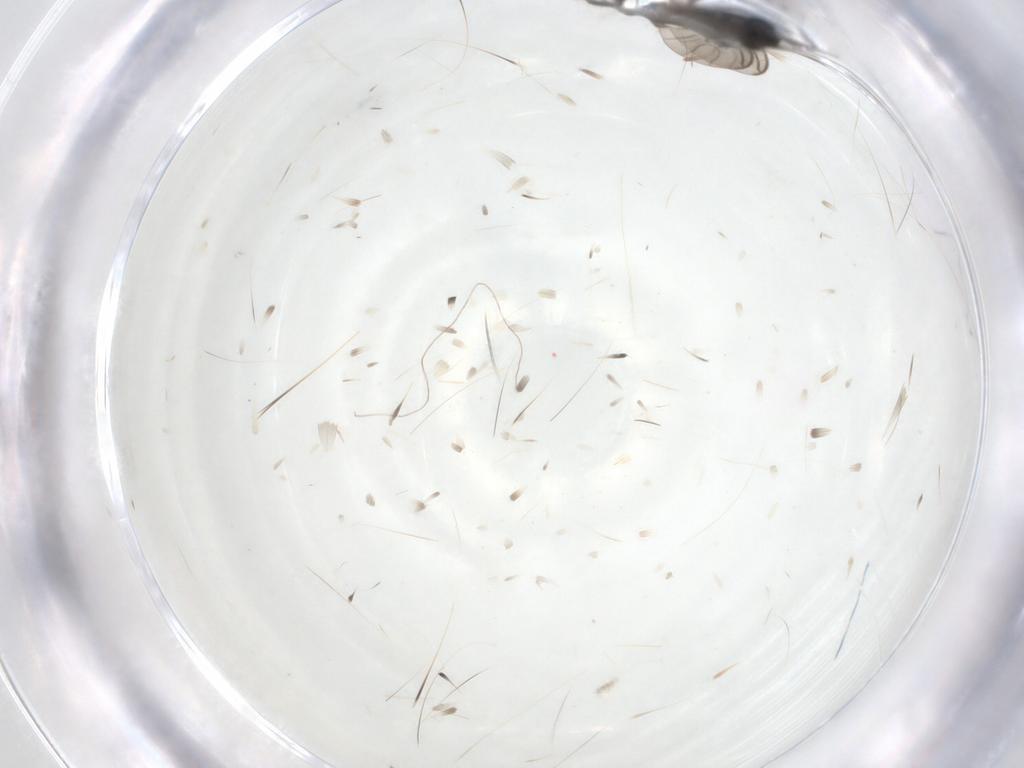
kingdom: Animalia
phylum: Arthropoda
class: Insecta
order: Diptera
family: Sciaridae
